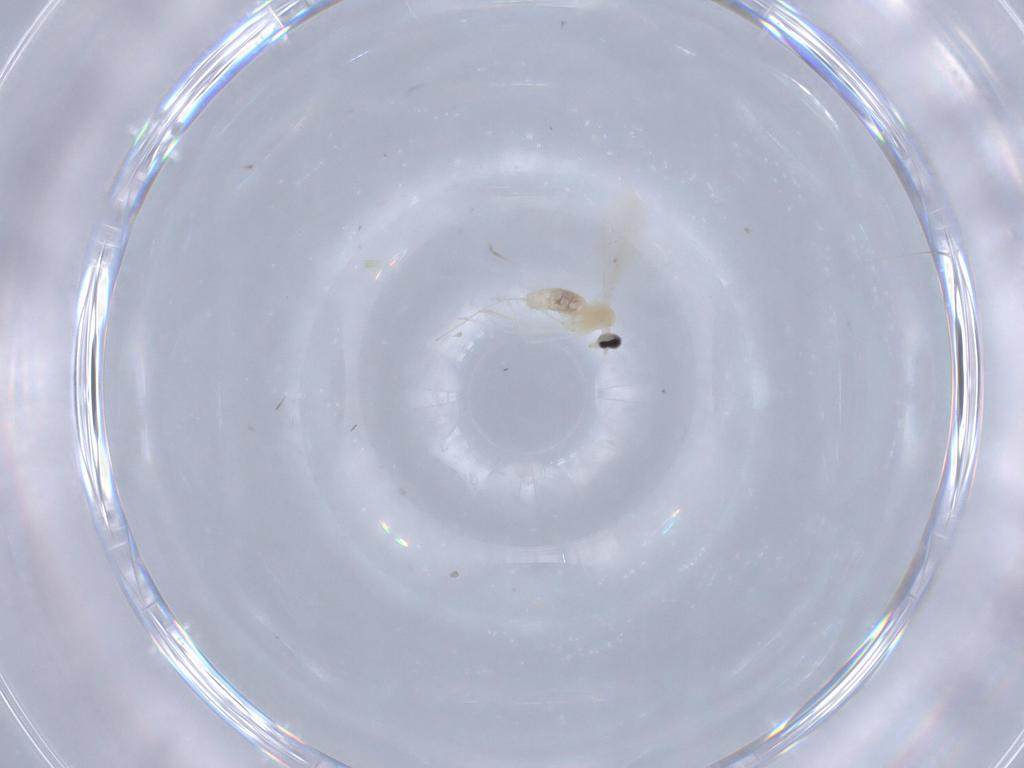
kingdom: Animalia
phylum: Arthropoda
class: Insecta
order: Diptera
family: Cecidomyiidae
